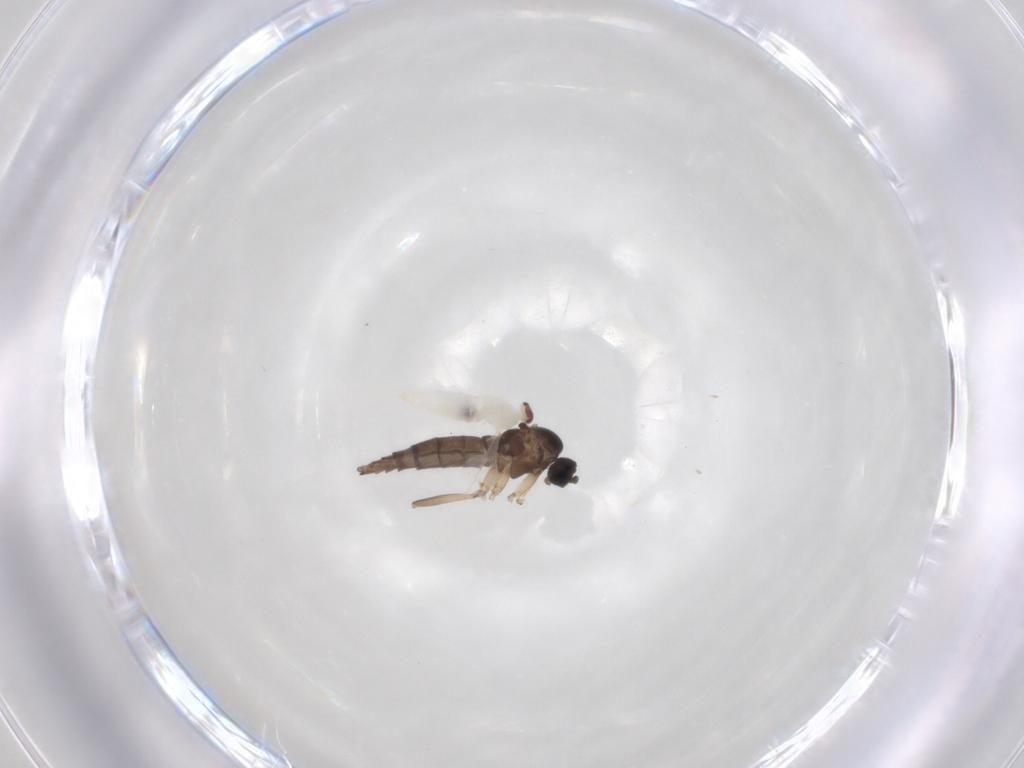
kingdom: Animalia
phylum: Arthropoda
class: Insecta
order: Diptera
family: Sciaridae
